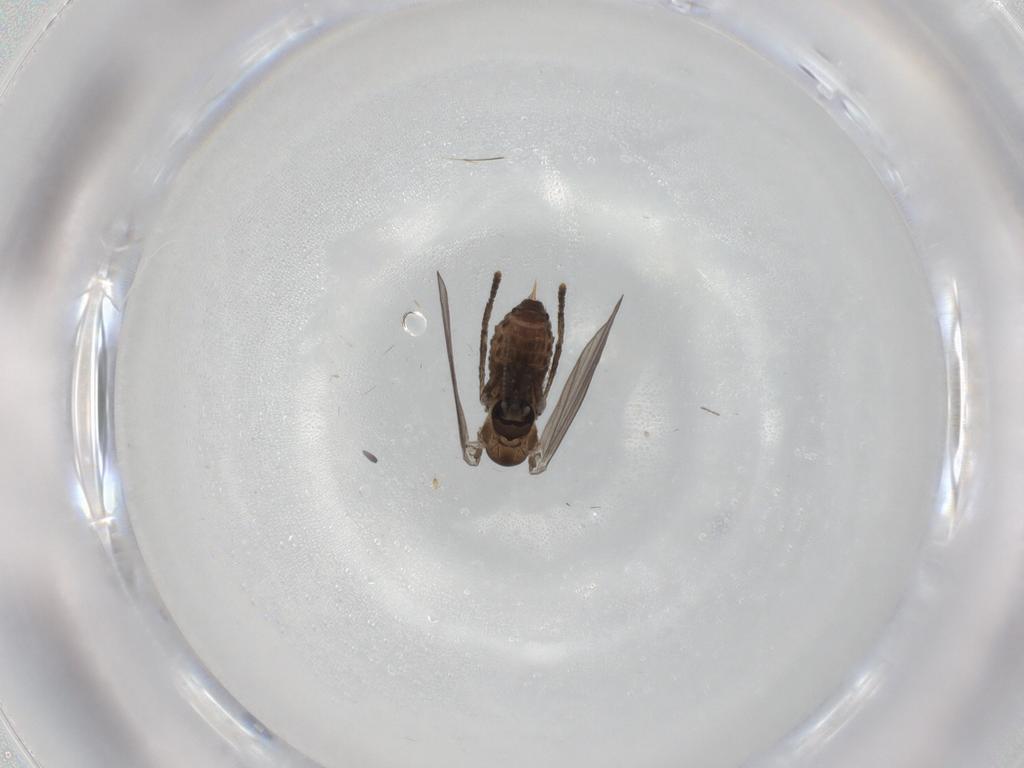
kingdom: Animalia
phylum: Arthropoda
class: Insecta
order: Diptera
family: Psychodidae
